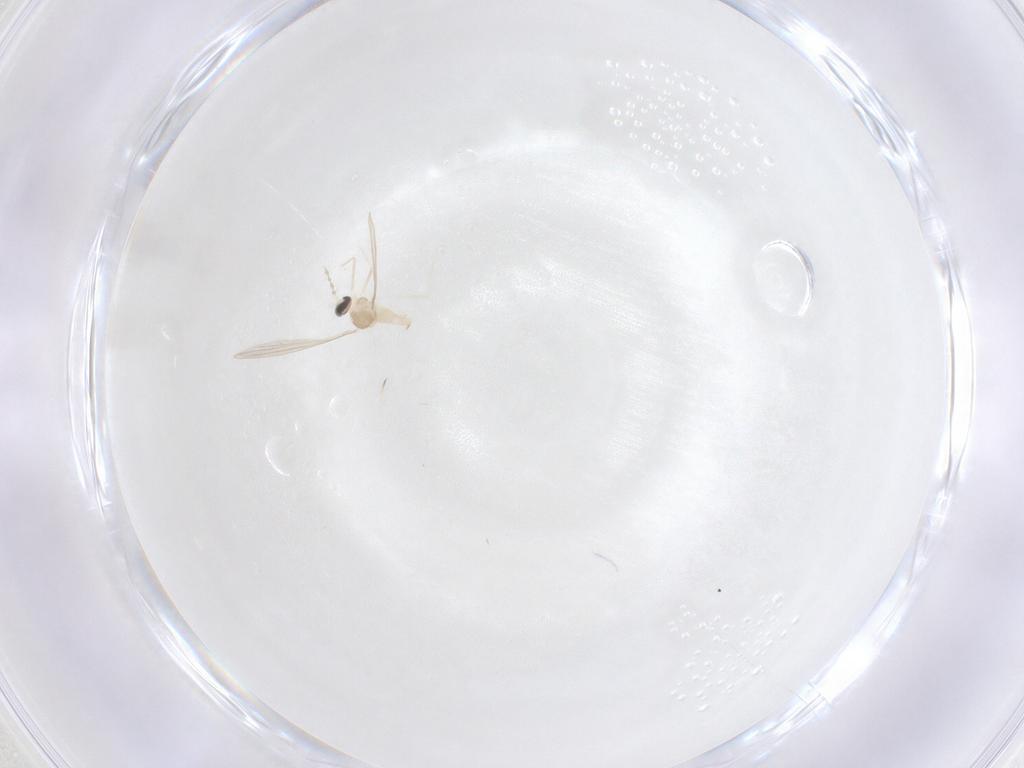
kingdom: Animalia
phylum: Arthropoda
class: Insecta
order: Diptera
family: Cecidomyiidae
